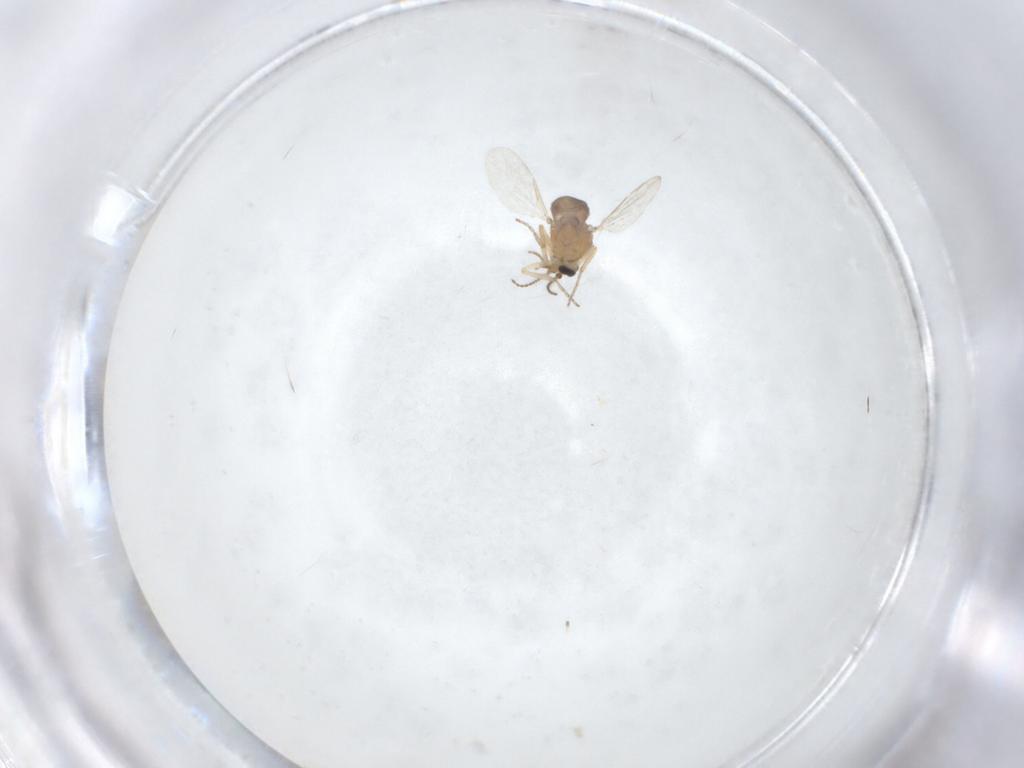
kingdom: Animalia
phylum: Arthropoda
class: Insecta
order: Diptera
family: Ceratopogonidae
